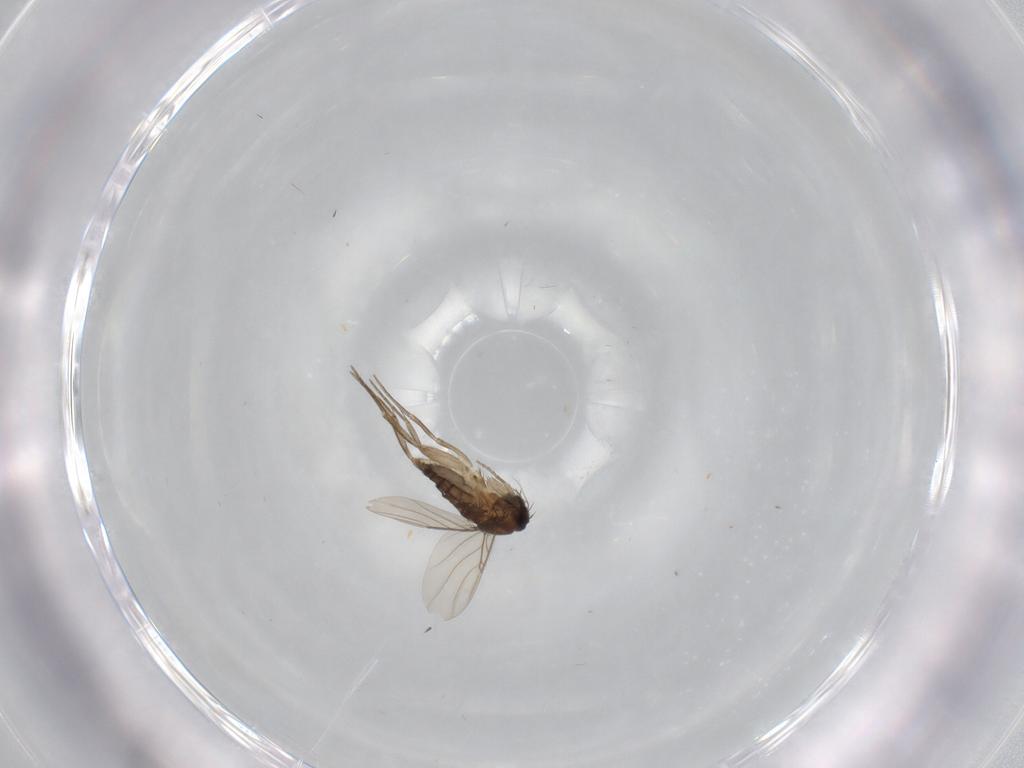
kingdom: Animalia
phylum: Arthropoda
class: Insecta
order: Diptera
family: Phoridae
